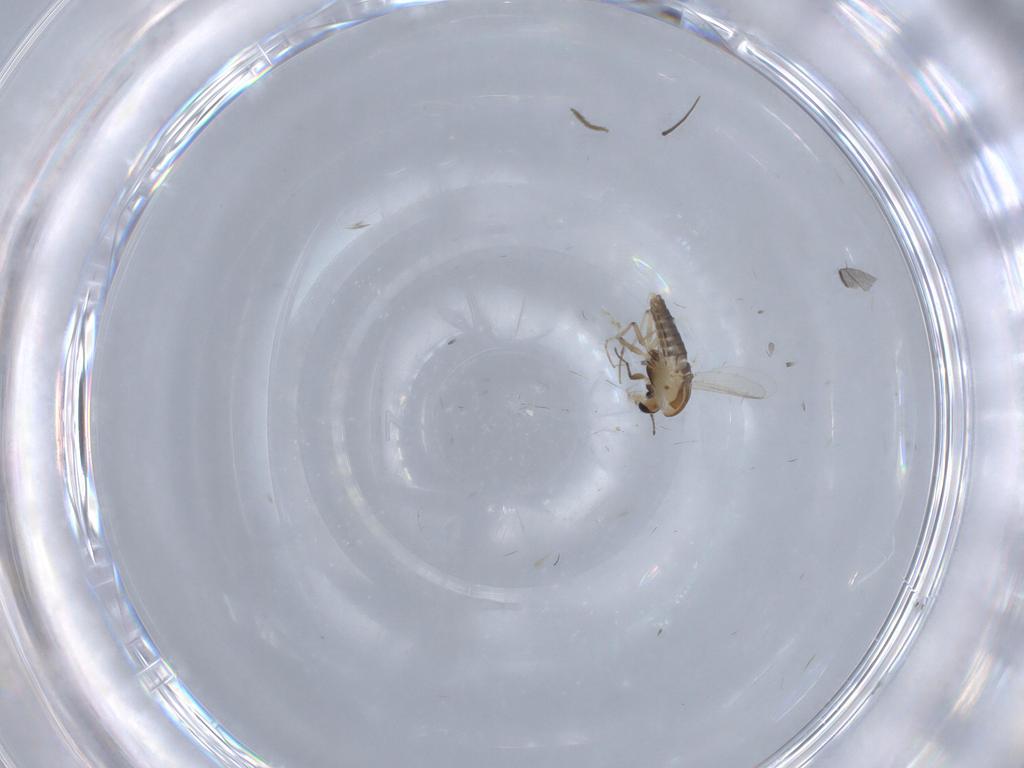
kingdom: Animalia
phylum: Arthropoda
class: Insecta
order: Diptera
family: Chironomidae
